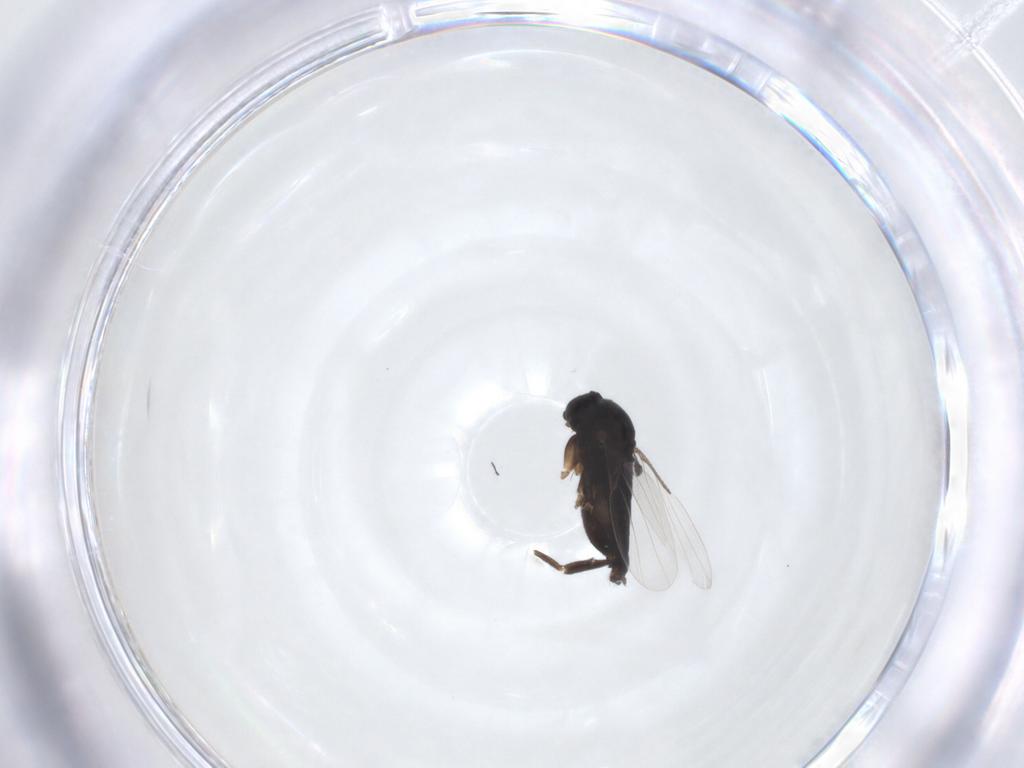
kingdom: Animalia
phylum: Arthropoda
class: Insecta
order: Diptera
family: Phoridae
